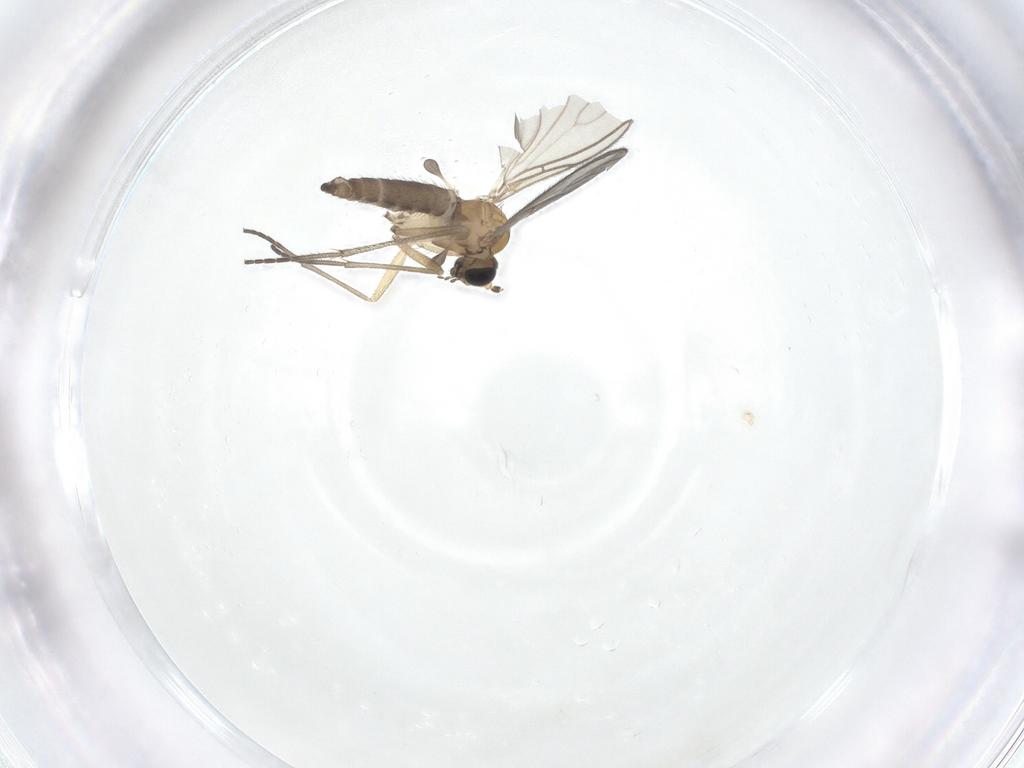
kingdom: Animalia
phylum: Arthropoda
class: Insecta
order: Diptera
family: Sciaridae
